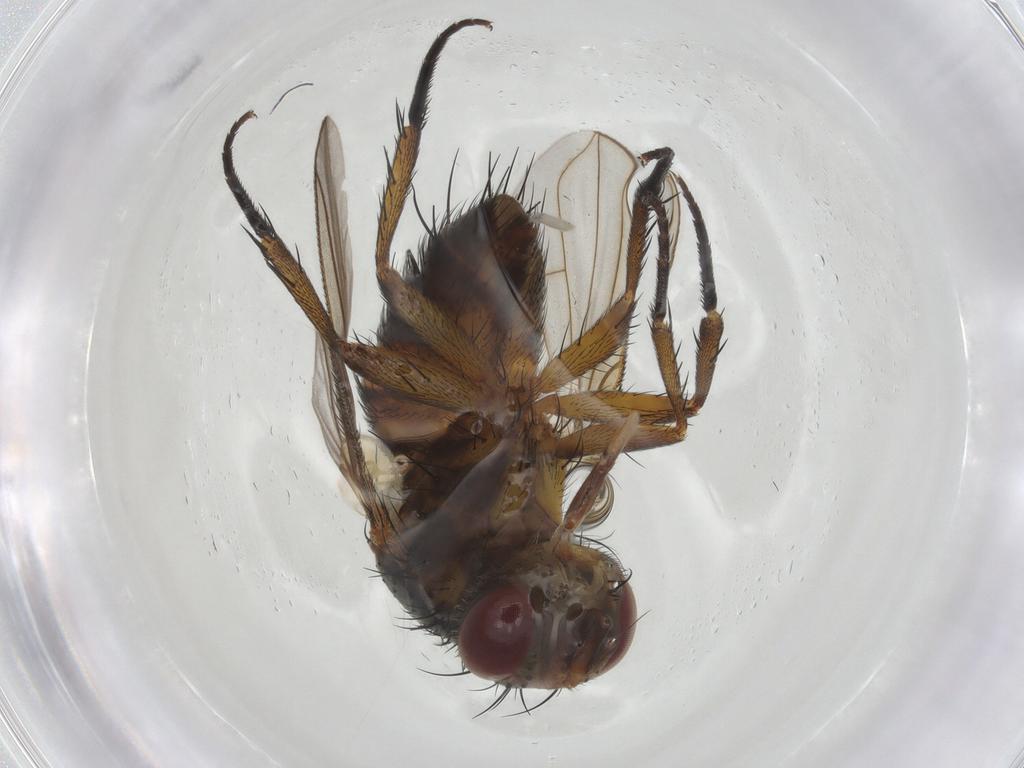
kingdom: Animalia
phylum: Arthropoda
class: Insecta
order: Diptera
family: Tachinidae
